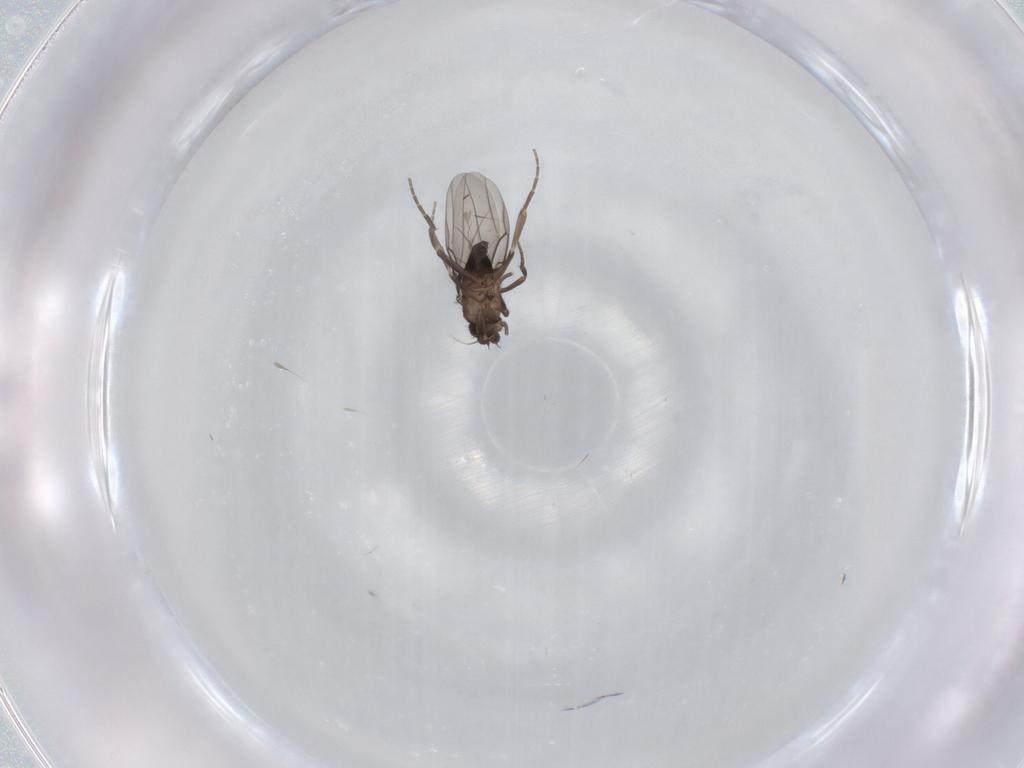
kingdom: Animalia
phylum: Arthropoda
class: Insecta
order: Diptera
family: Phoridae
